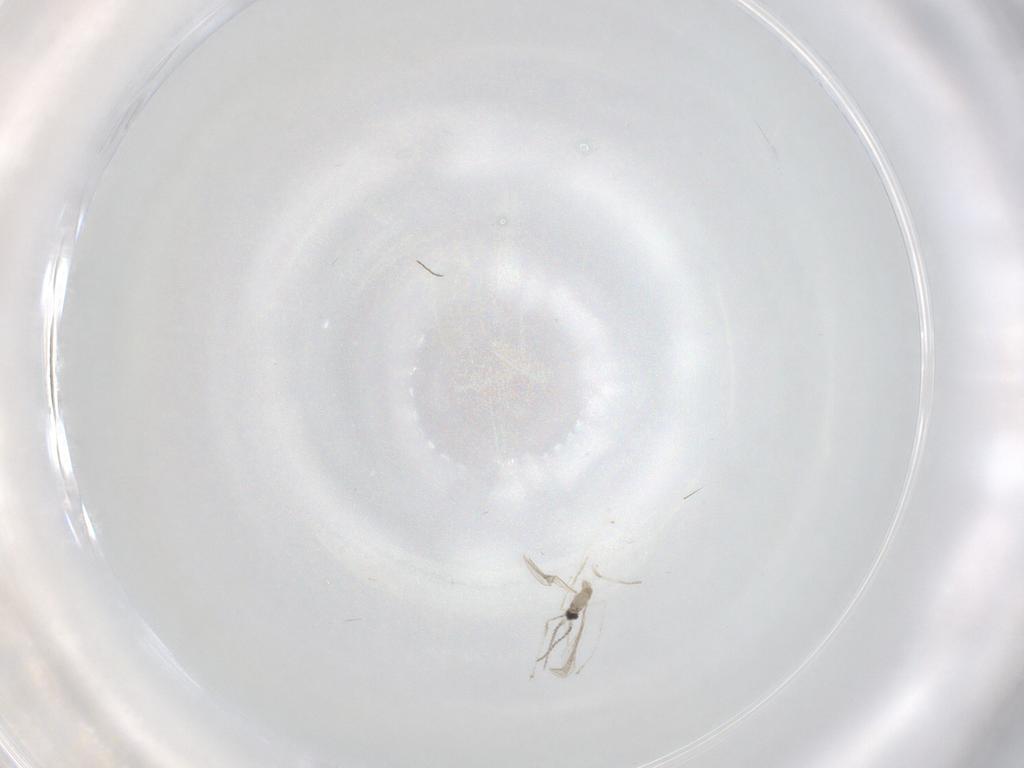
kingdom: Animalia
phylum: Arthropoda
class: Insecta
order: Diptera
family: Cecidomyiidae
